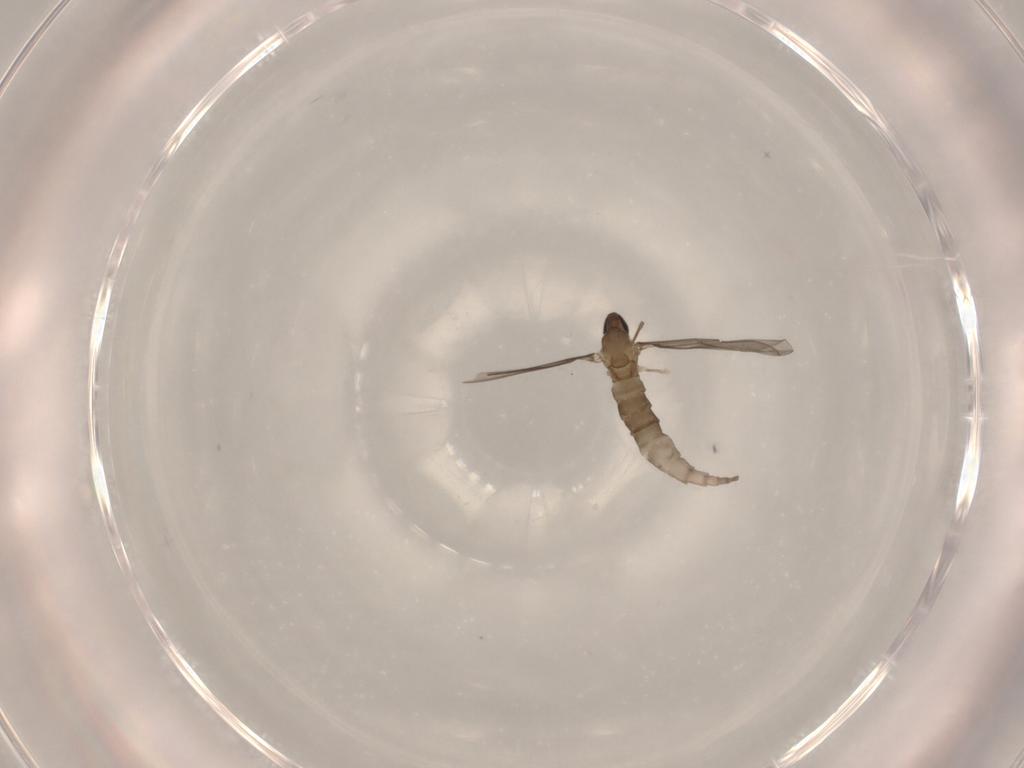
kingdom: Animalia
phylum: Arthropoda
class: Insecta
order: Diptera
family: Cecidomyiidae
